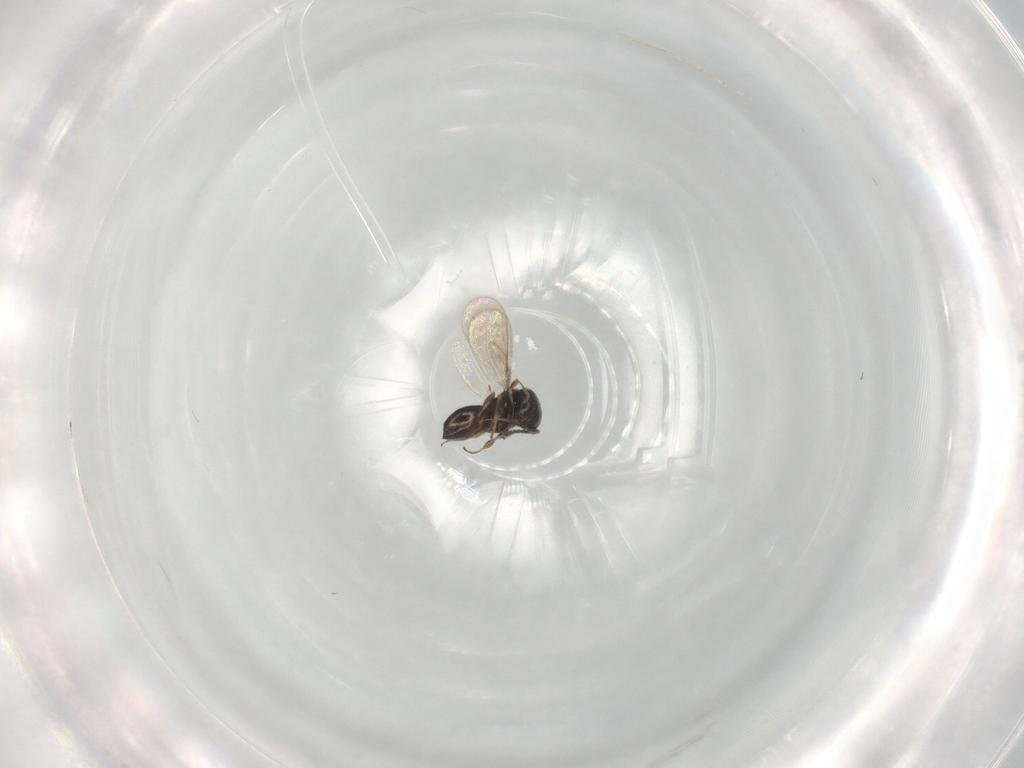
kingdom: Animalia
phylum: Arthropoda
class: Insecta
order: Hymenoptera
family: Scelionidae
